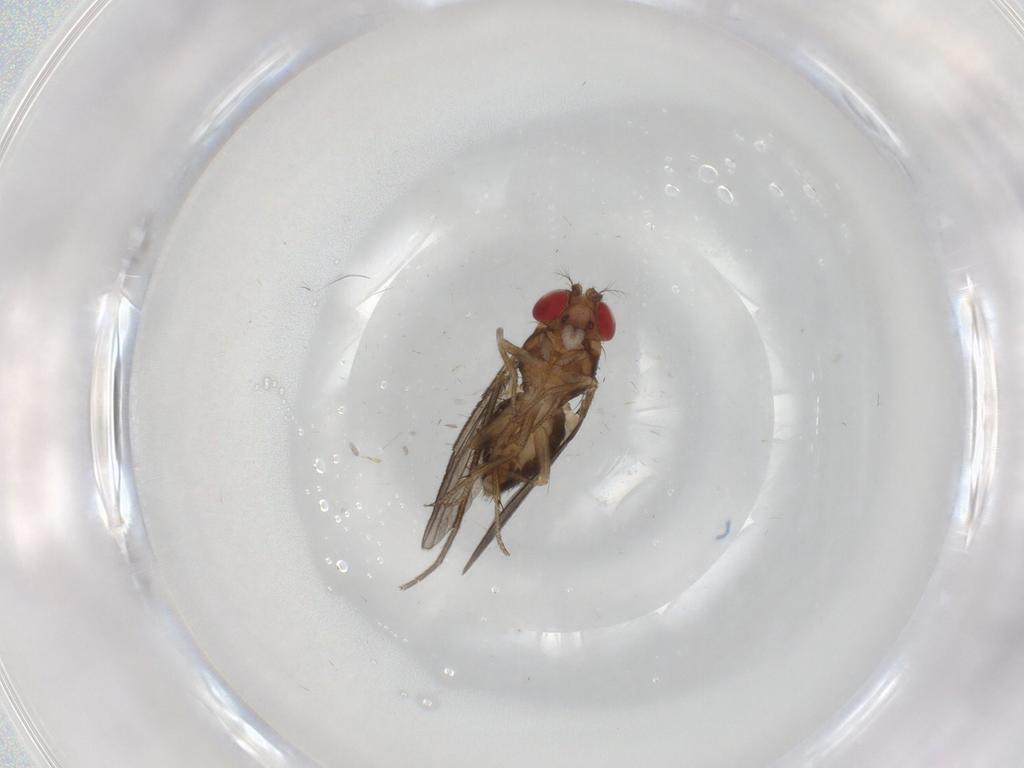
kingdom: Animalia
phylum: Arthropoda
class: Insecta
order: Diptera
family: Drosophilidae
